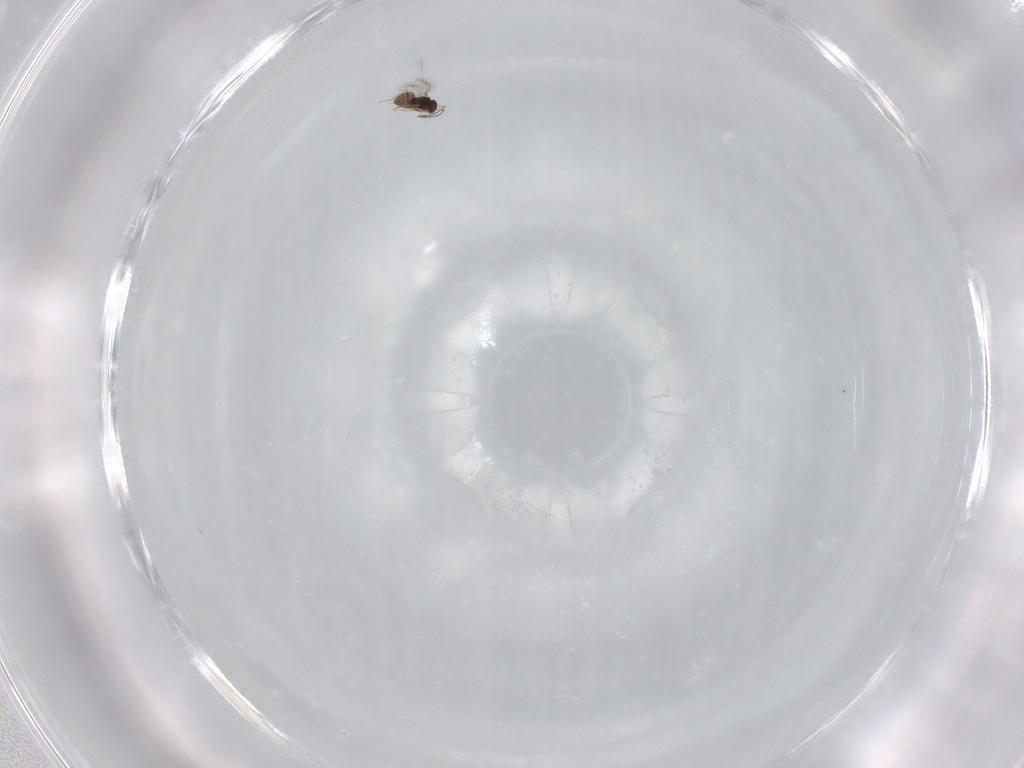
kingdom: Animalia
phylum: Arthropoda
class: Insecta
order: Hymenoptera
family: Mymaridae
